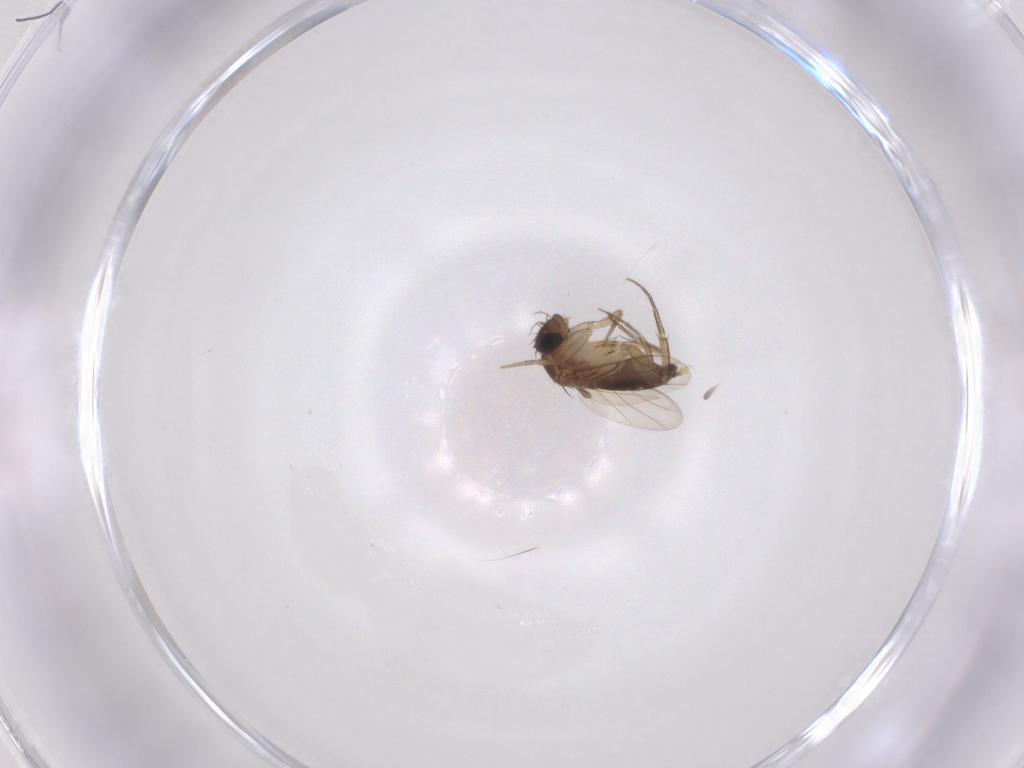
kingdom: Animalia
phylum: Arthropoda
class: Insecta
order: Diptera
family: Phoridae
